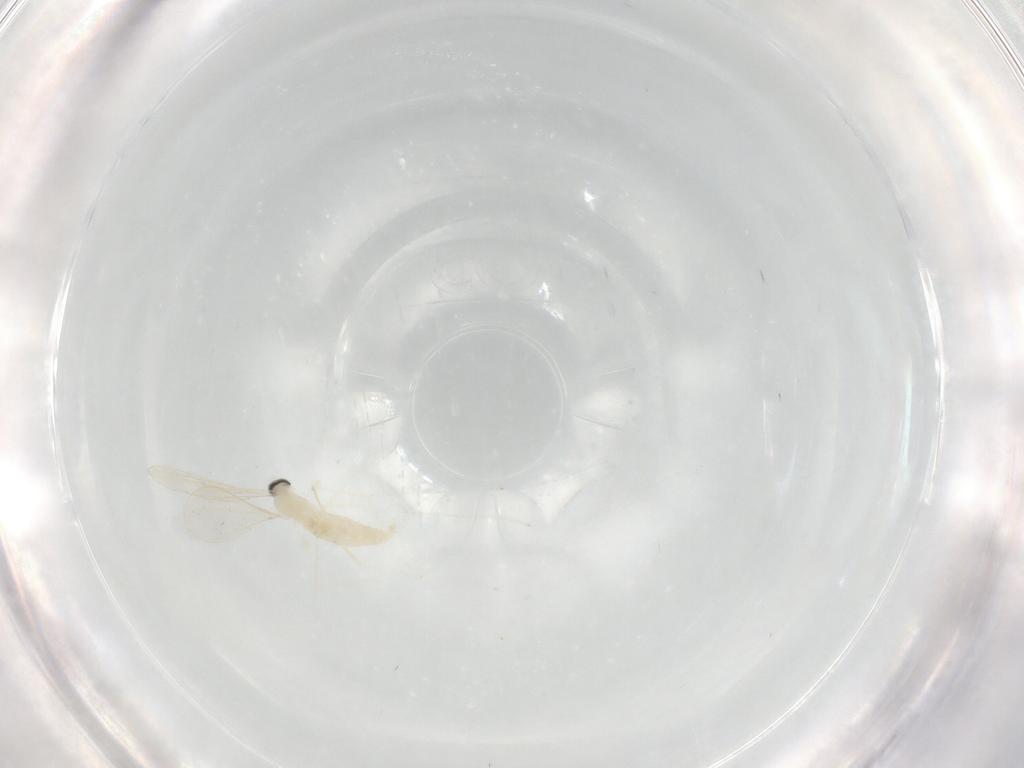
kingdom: Animalia
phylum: Arthropoda
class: Insecta
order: Diptera
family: Cecidomyiidae
